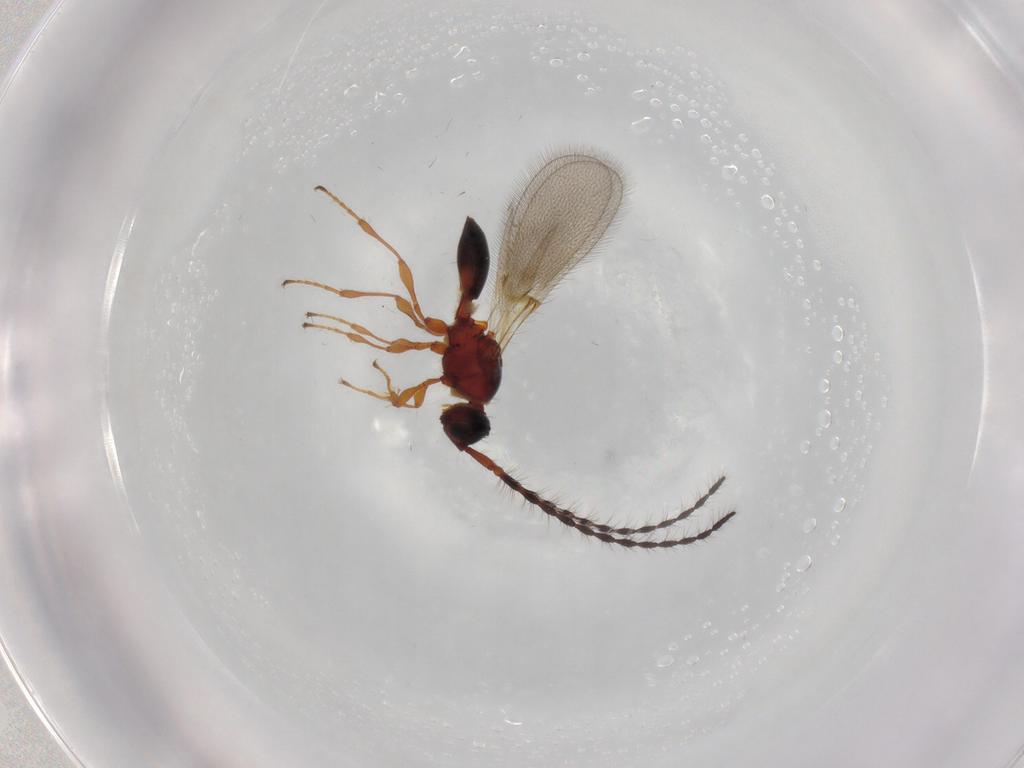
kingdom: Animalia
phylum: Arthropoda
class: Insecta
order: Hymenoptera
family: Diapriidae
